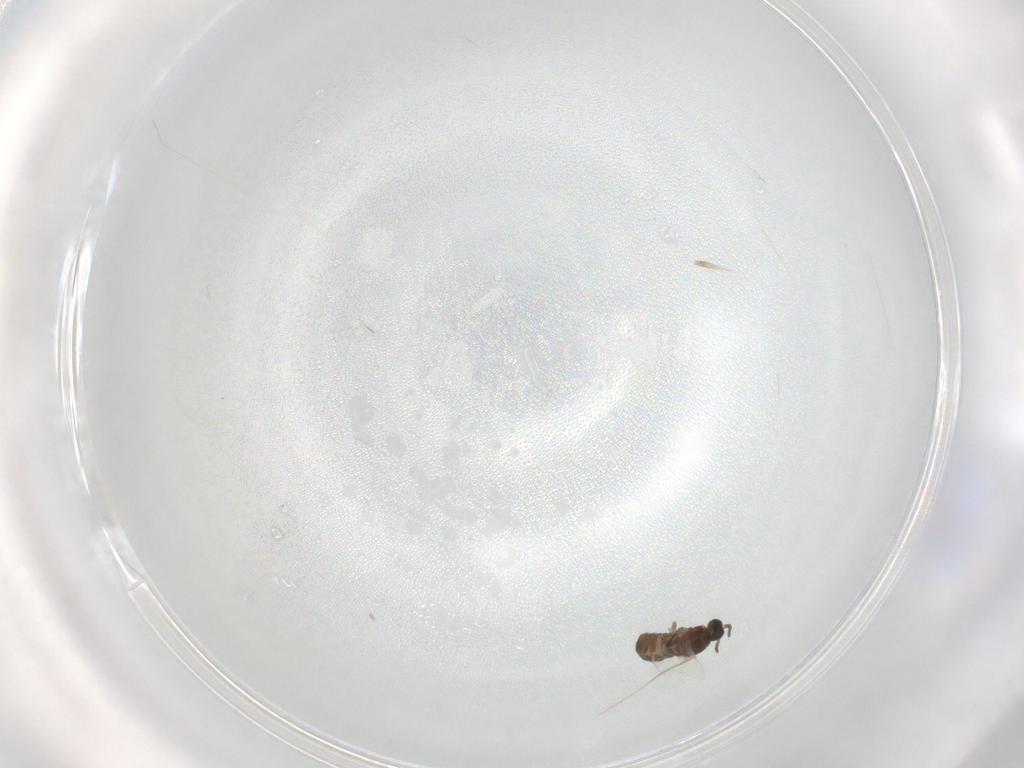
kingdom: Animalia
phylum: Arthropoda
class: Insecta
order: Diptera
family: Cecidomyiidae
